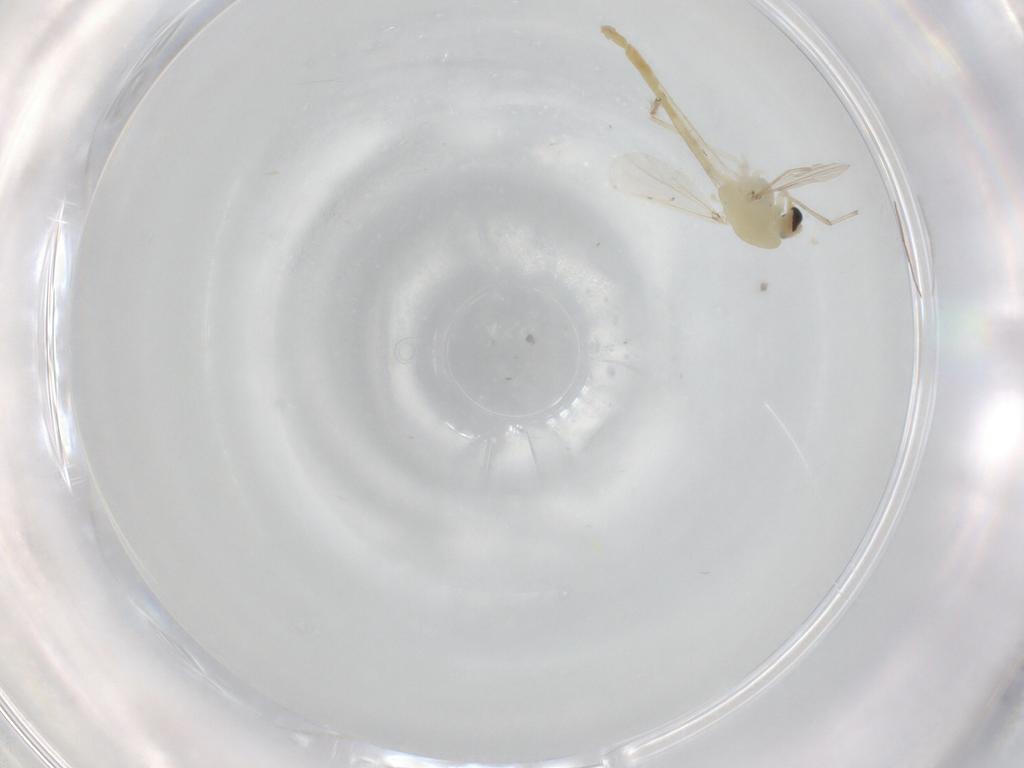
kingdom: Animalia
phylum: Arthropoda
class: Insecta
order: Diptera
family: Chironomidae
